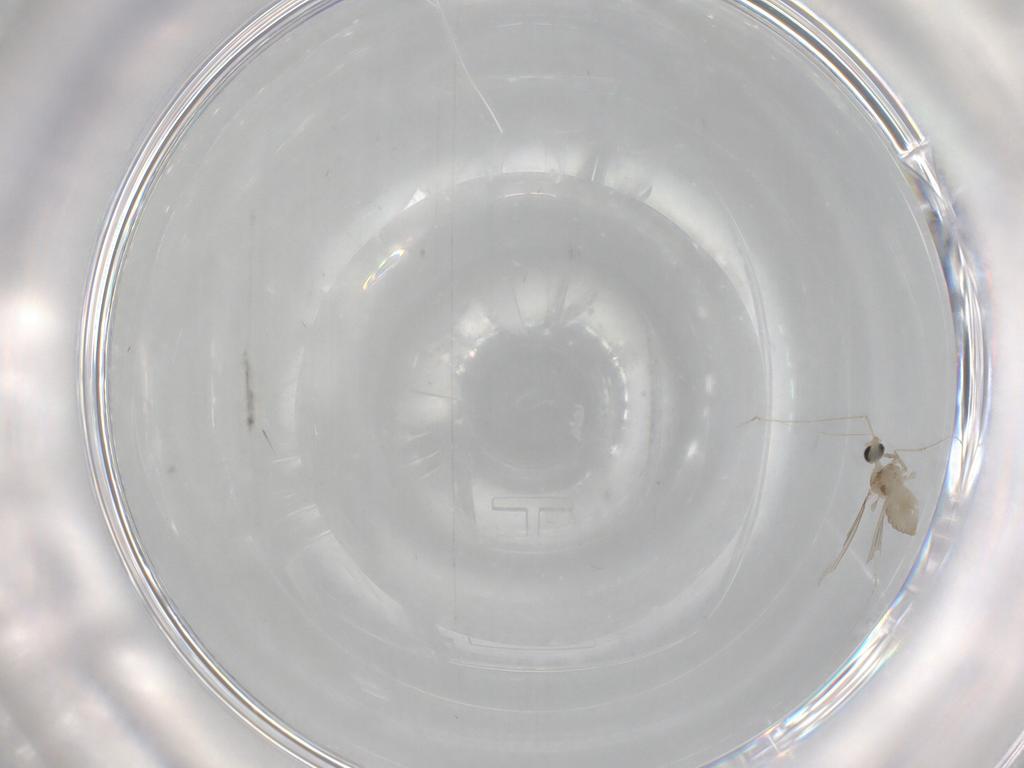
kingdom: Animalia
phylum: Arthropoda
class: Insecta
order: Diptera
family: Cecidomyiidae
